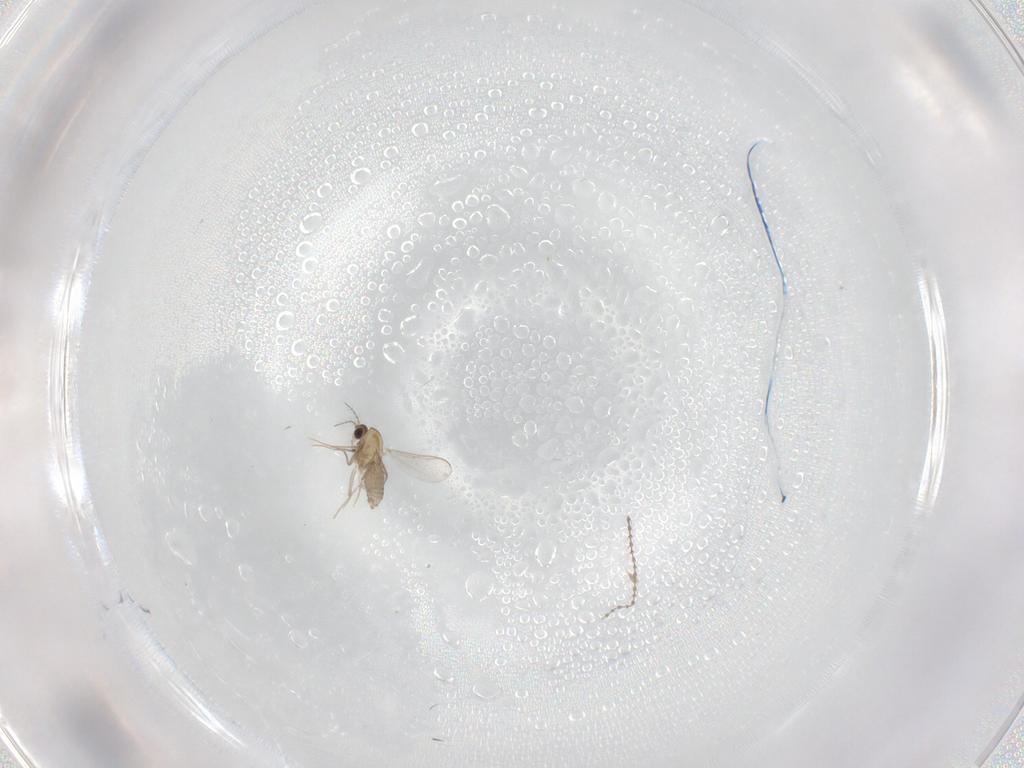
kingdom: Animalia
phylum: Arthropoda
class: Insecta
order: Diptera
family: Chironomidae
